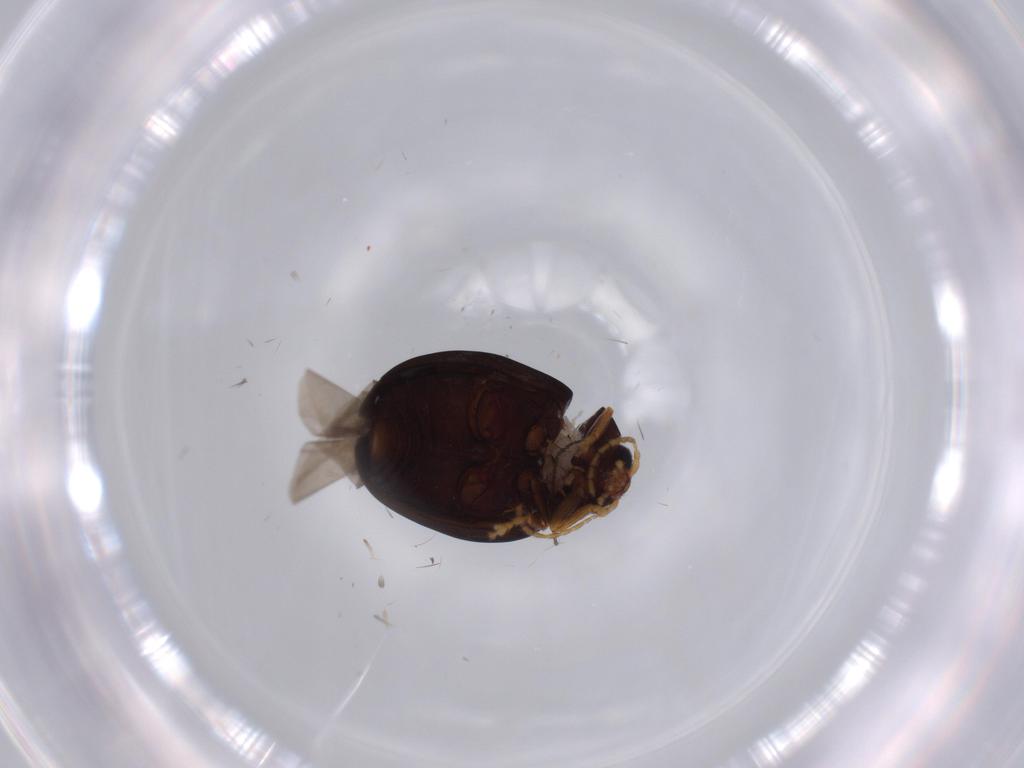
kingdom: Animalia
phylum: Arthropoda
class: Insecta
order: Coleoptera
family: Chrysomelidae
